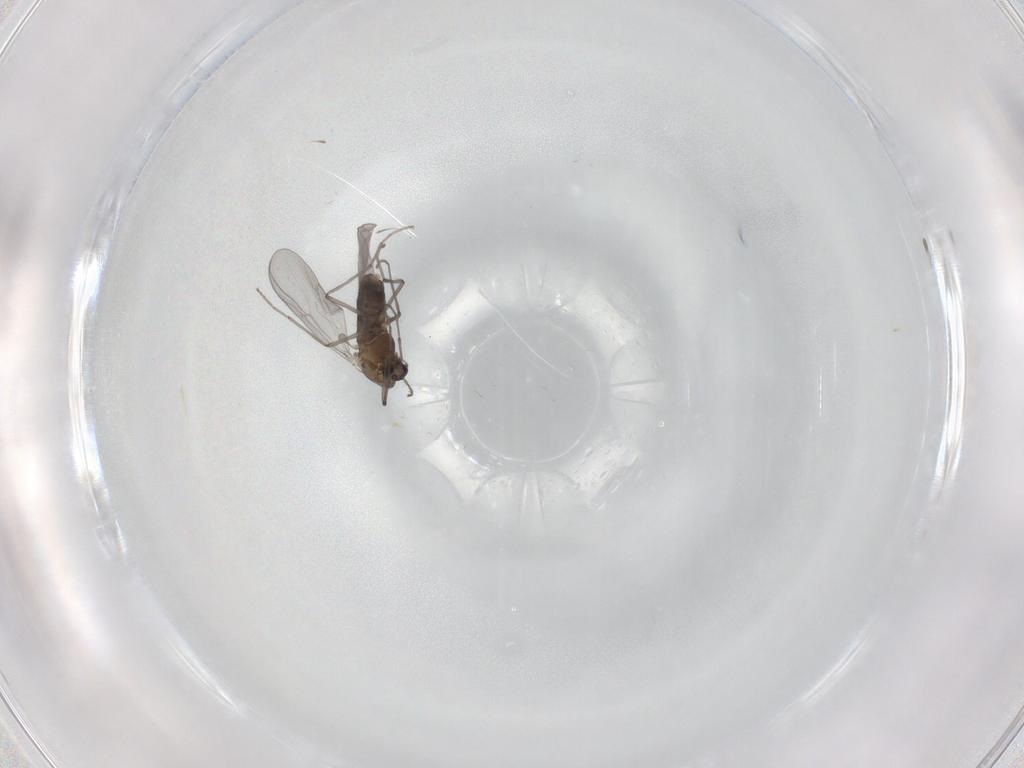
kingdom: Animalia
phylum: Arthropoda
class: Insecta
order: Diptera
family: Chironomidae
